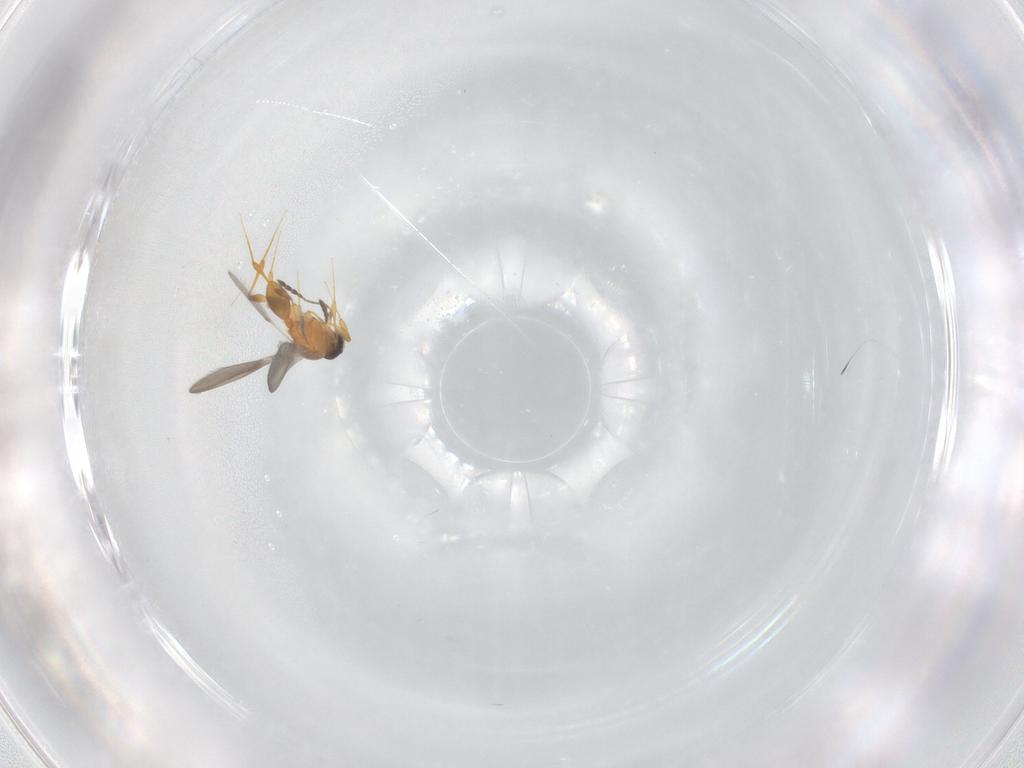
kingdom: Animalia
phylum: Arthropoda
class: Insecta
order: Hymenoptera
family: Platygastridae
